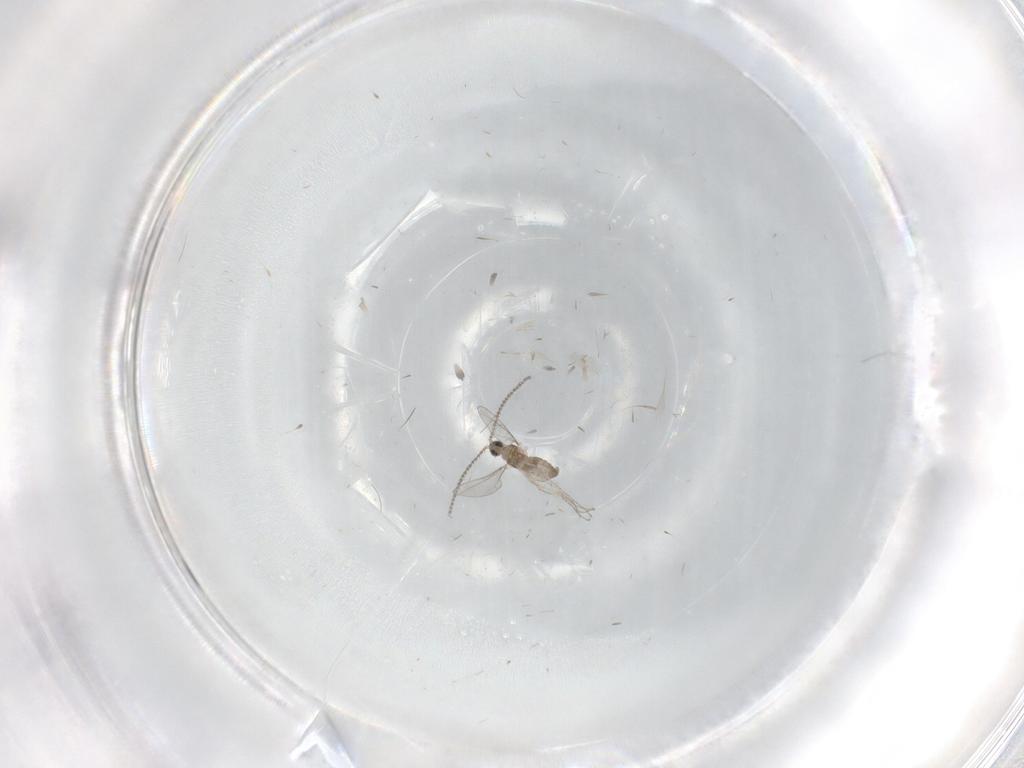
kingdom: Animalia
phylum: Arthropoda
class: Insecta
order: Diptera
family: Cecidomyiidae
